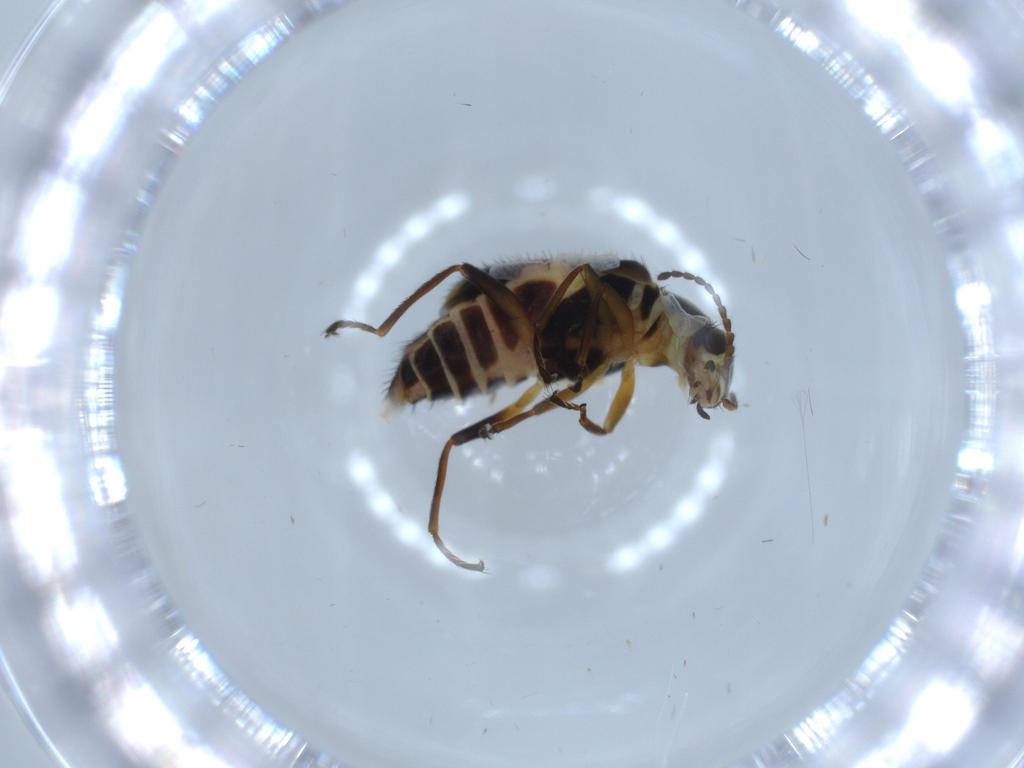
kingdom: Animalia
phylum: Arthropoda
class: Insecta
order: Coleoptera
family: Melyridae
